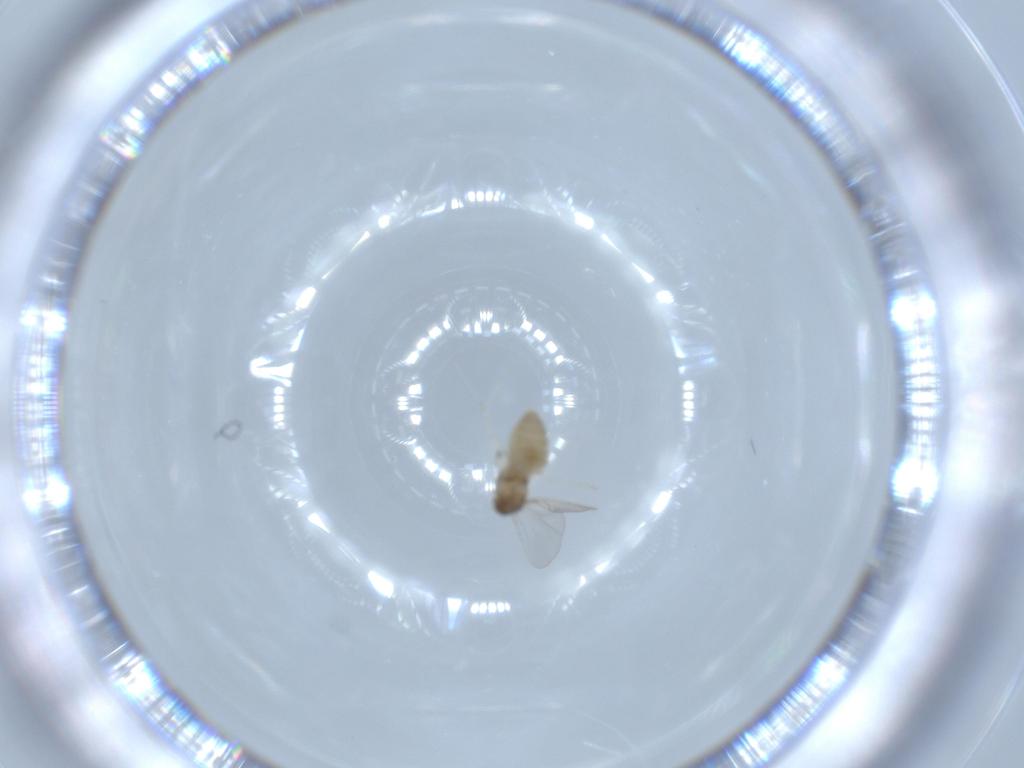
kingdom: Animalia
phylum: Arthropoda
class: Insecta
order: Diptera
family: Cecidomyiidae
